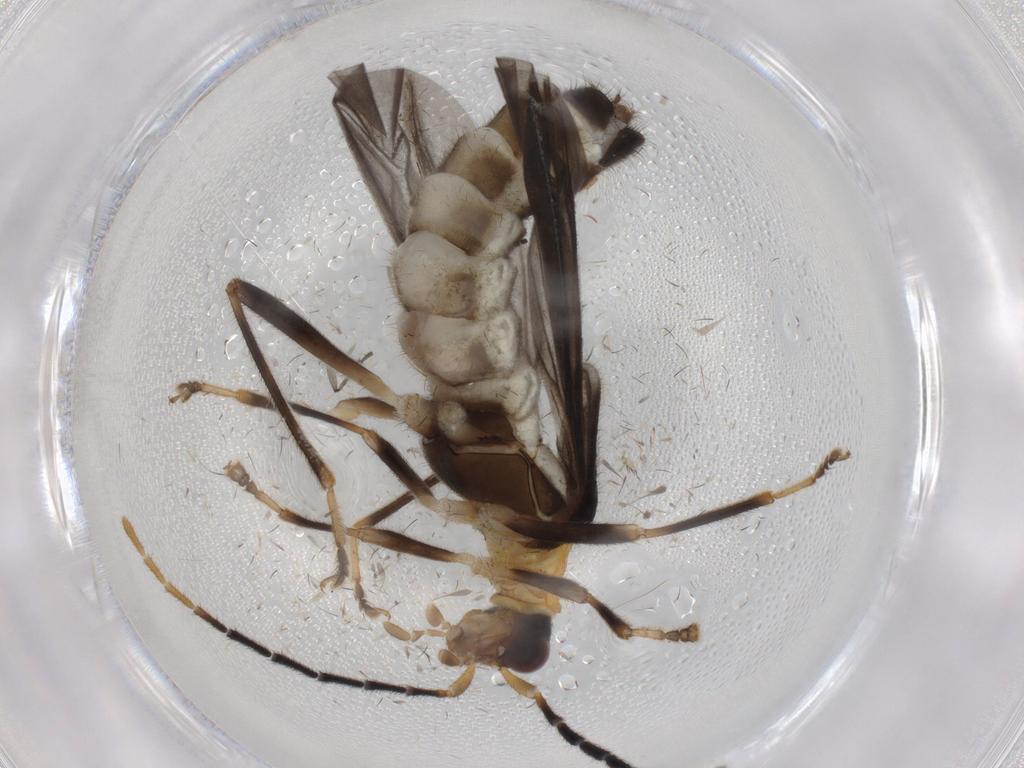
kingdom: Animalia
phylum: Arthropoda
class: Insecta
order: Coleoptera
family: Cantharidae
